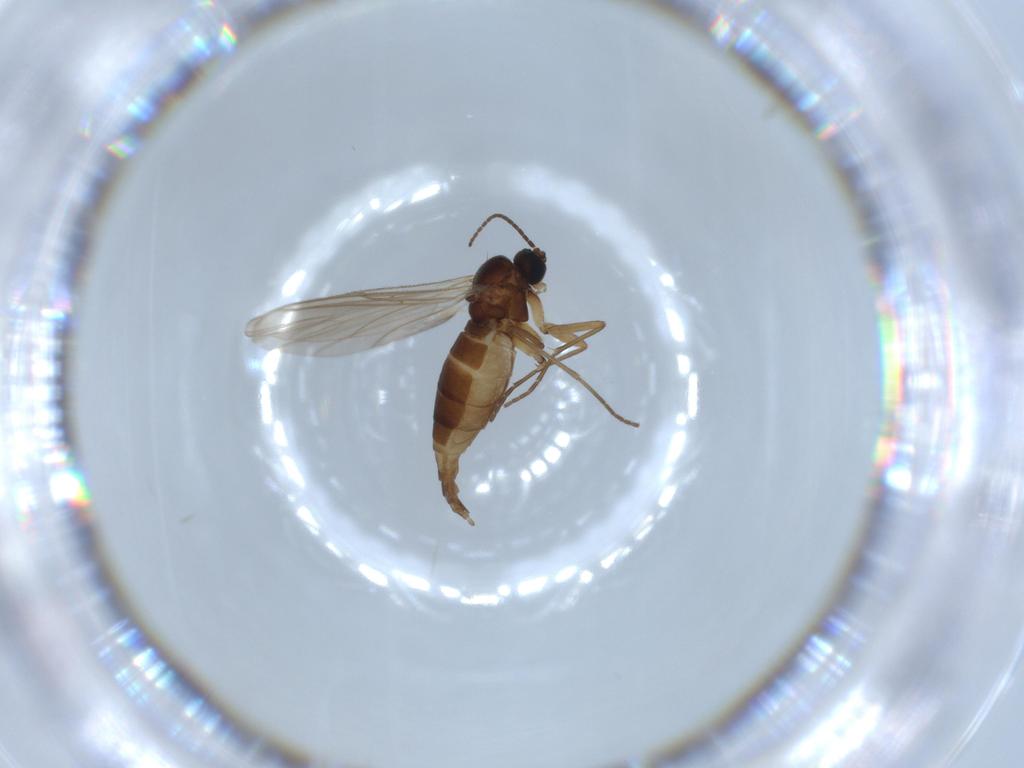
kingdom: Animalia
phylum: Arthropoda
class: Insecta
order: Diptera
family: Sciaridae
